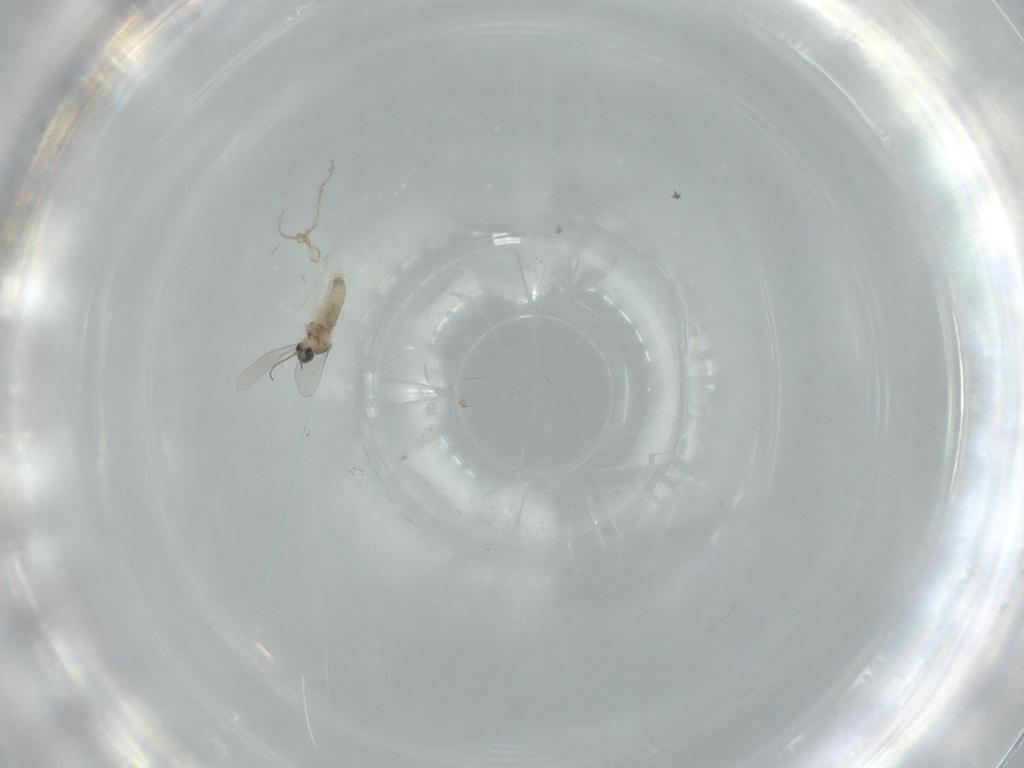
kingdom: Animalia
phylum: Arthropoda
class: Insecta
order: Diptera
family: Psychodidae
